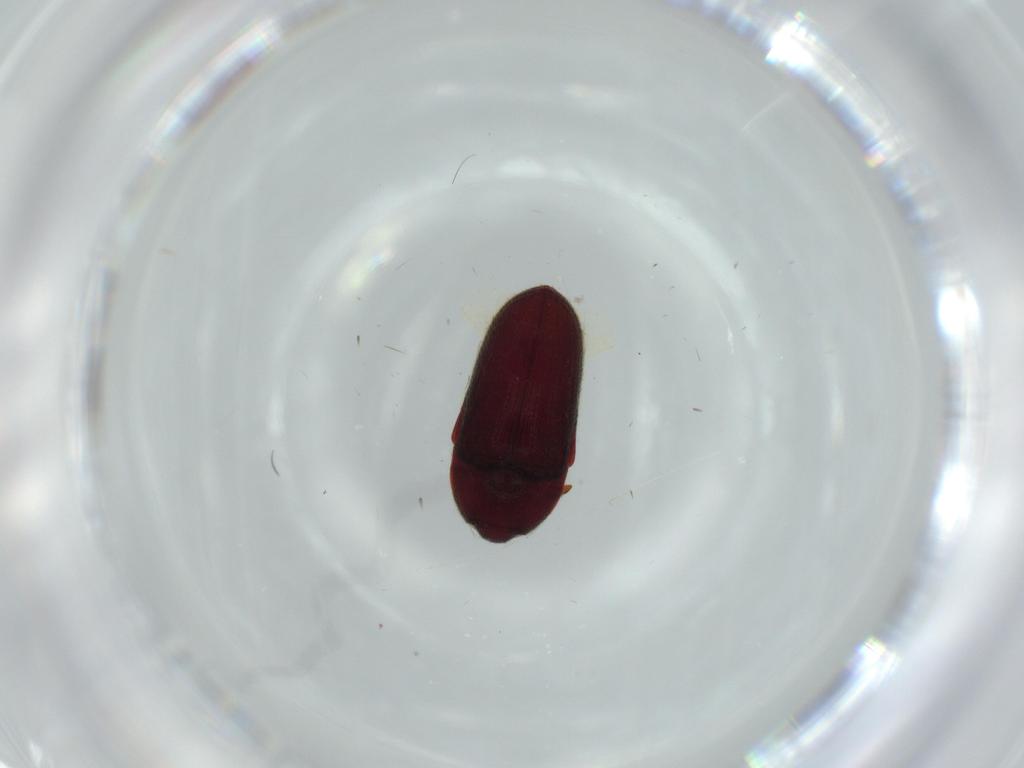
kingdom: Animalia
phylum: Arthropoda
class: Insecta
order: Coleoptera
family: Throscidae
